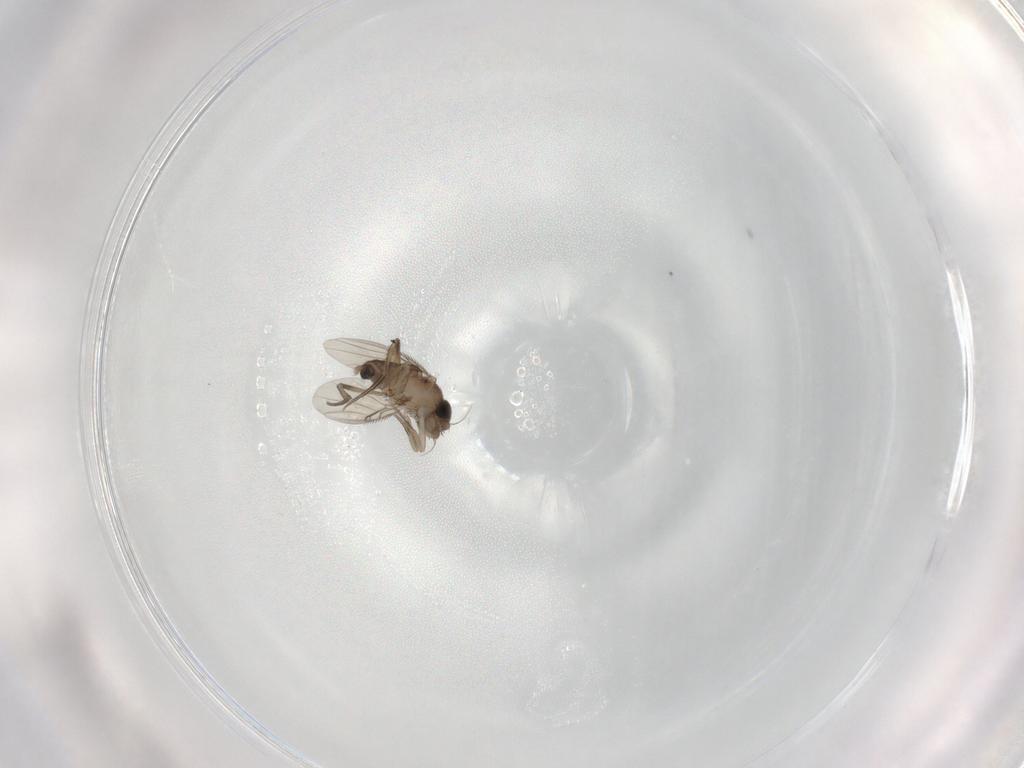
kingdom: Animalia
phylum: Arthropoda
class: Insecta
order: Diptera
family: Phoridae
